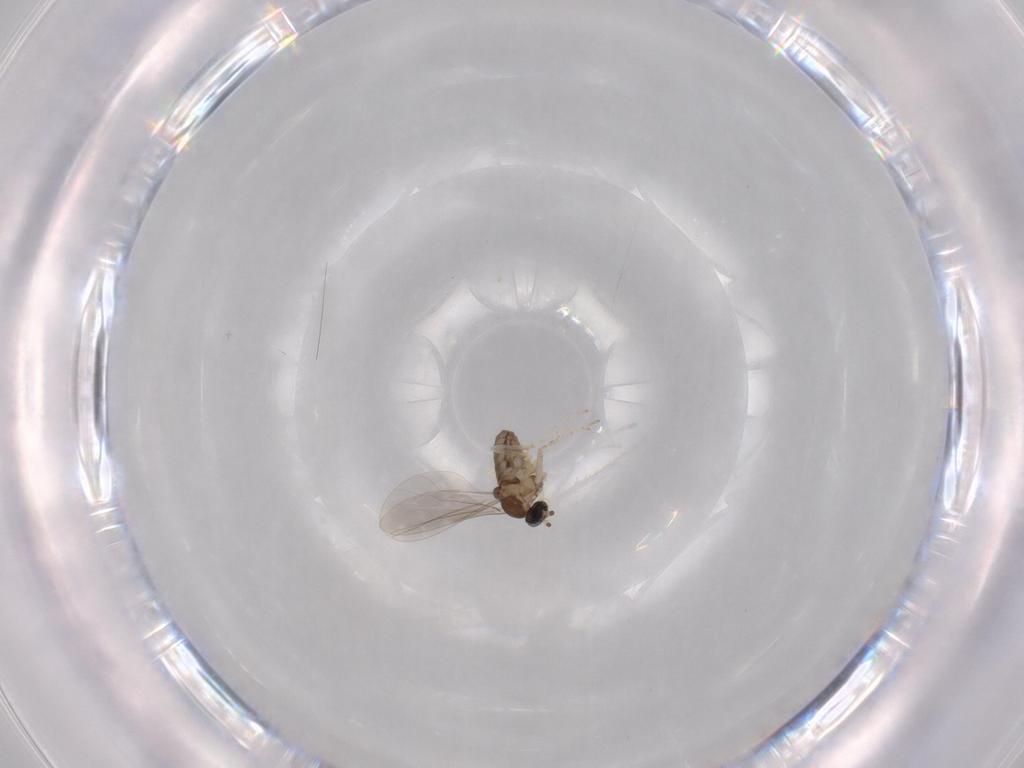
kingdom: Animalia
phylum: Arthropoda
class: Insecta
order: Diptera
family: Cecidomyiidae
